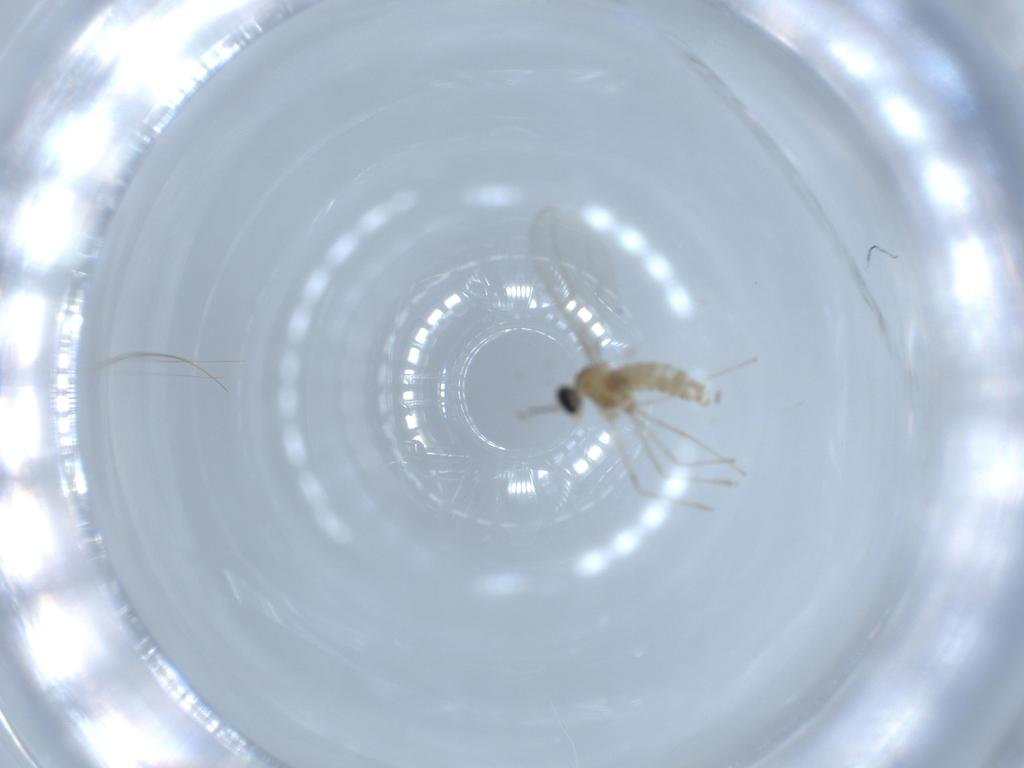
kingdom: Animalia
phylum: Arthropoda
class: Insecta
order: Diptera
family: Cecidomyiidae
